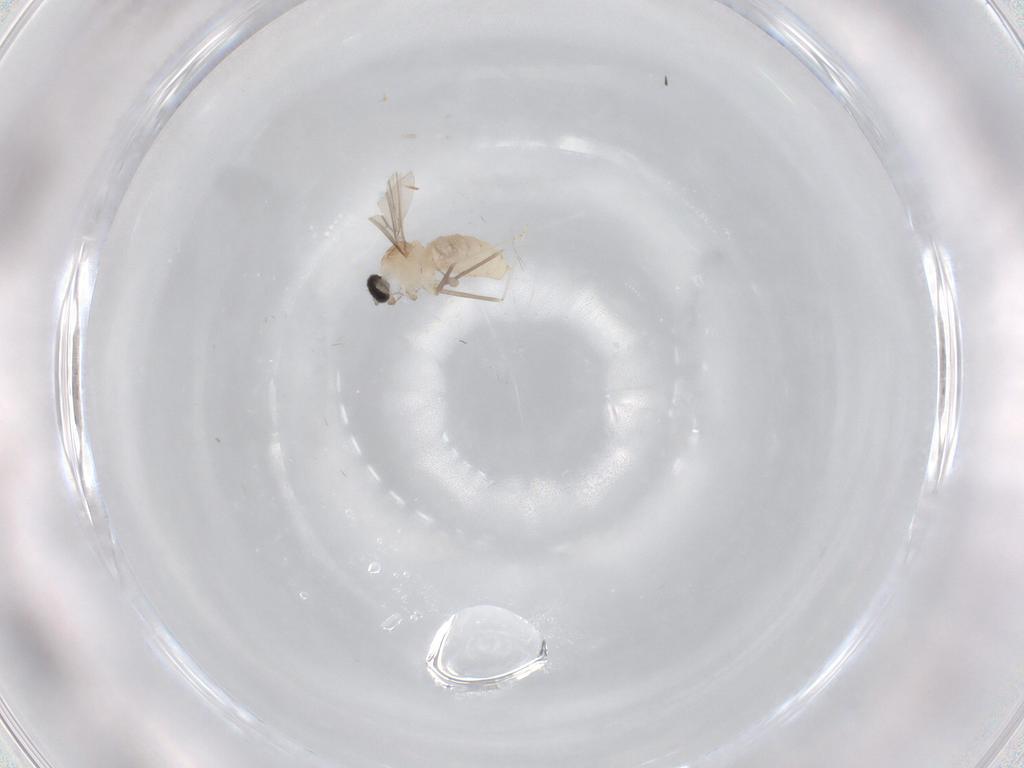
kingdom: Animalia
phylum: Arthropoda
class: Insecta
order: Diptera
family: Cecidomyiidae
